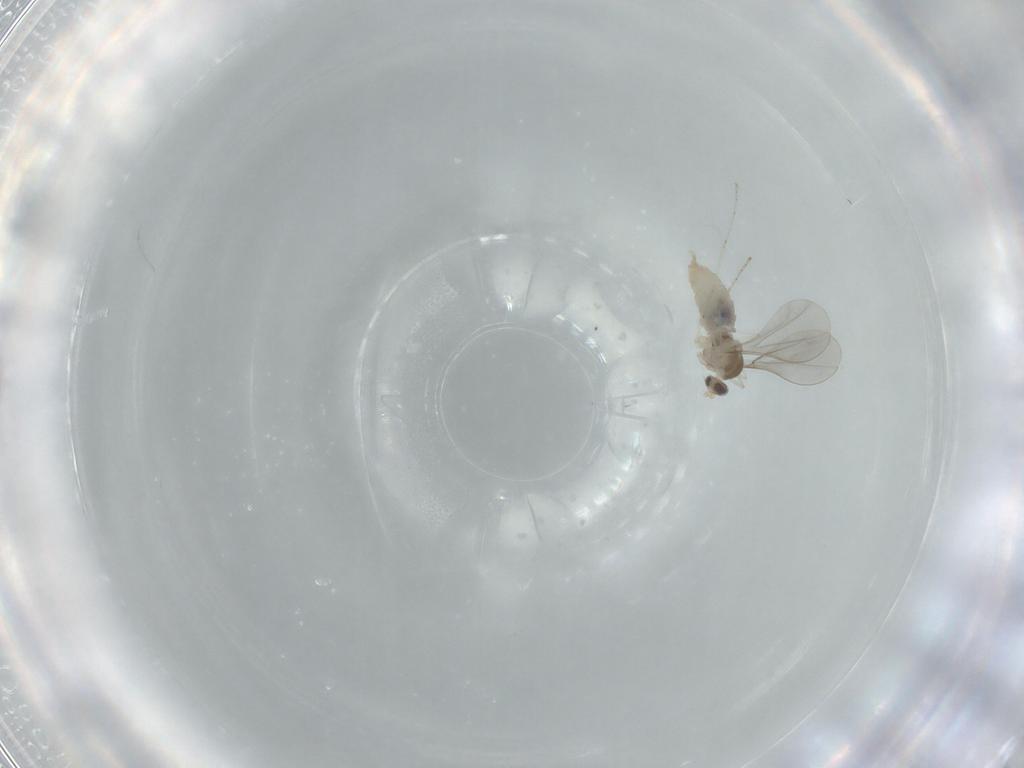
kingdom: Animalia
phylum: Arthropoda
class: Insecta
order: Diptera
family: Cecidomyiidae
